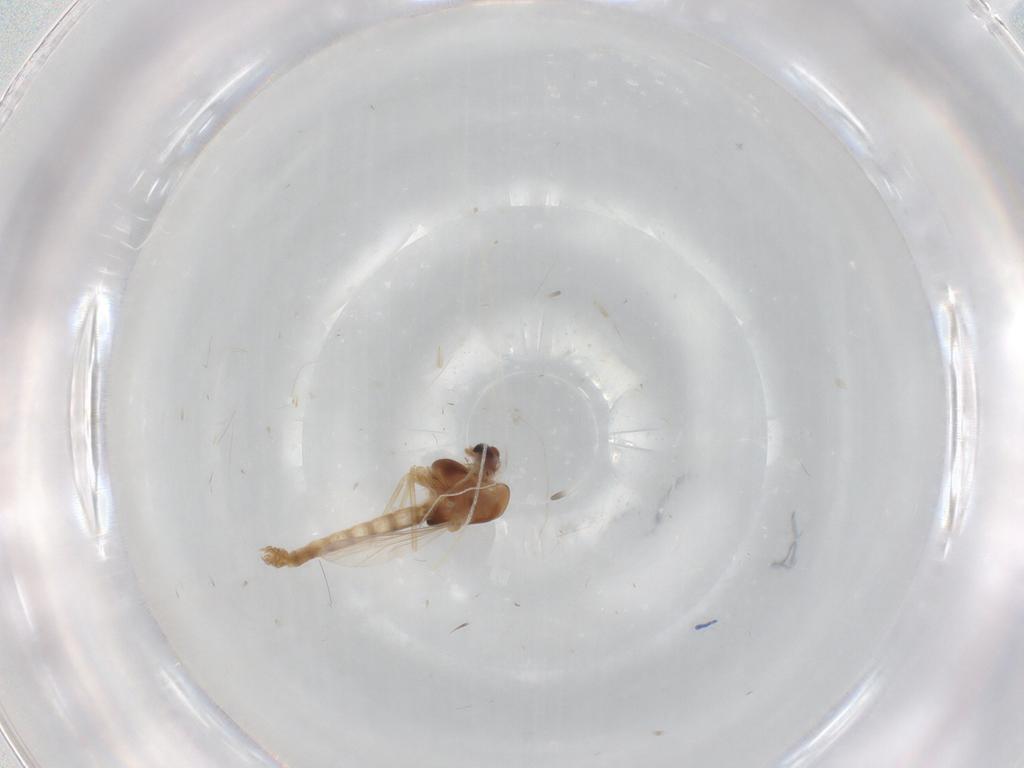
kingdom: Animalia
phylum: Arthropoda
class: Insecta
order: Diptera
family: Chironomidae
